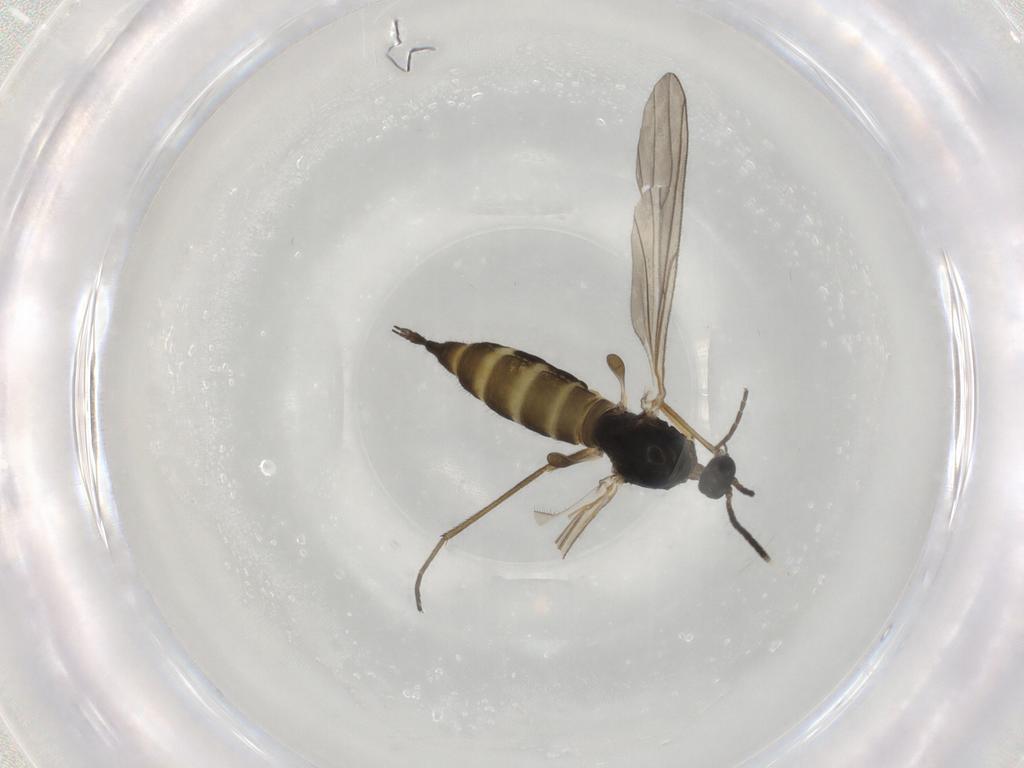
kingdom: Animalia
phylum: Arthropoda
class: Insecta
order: Diptera
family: Sciaridae
